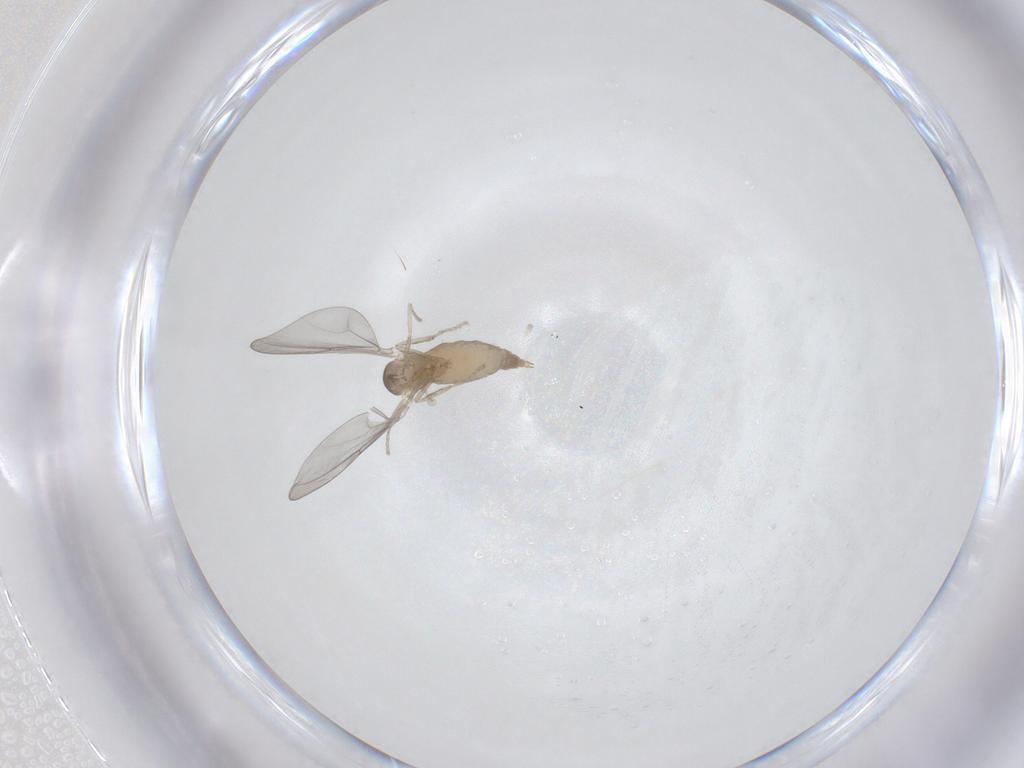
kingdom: Animalia
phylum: Arthropoda
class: Insecta
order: Diptera
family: Cecidomyiidae
